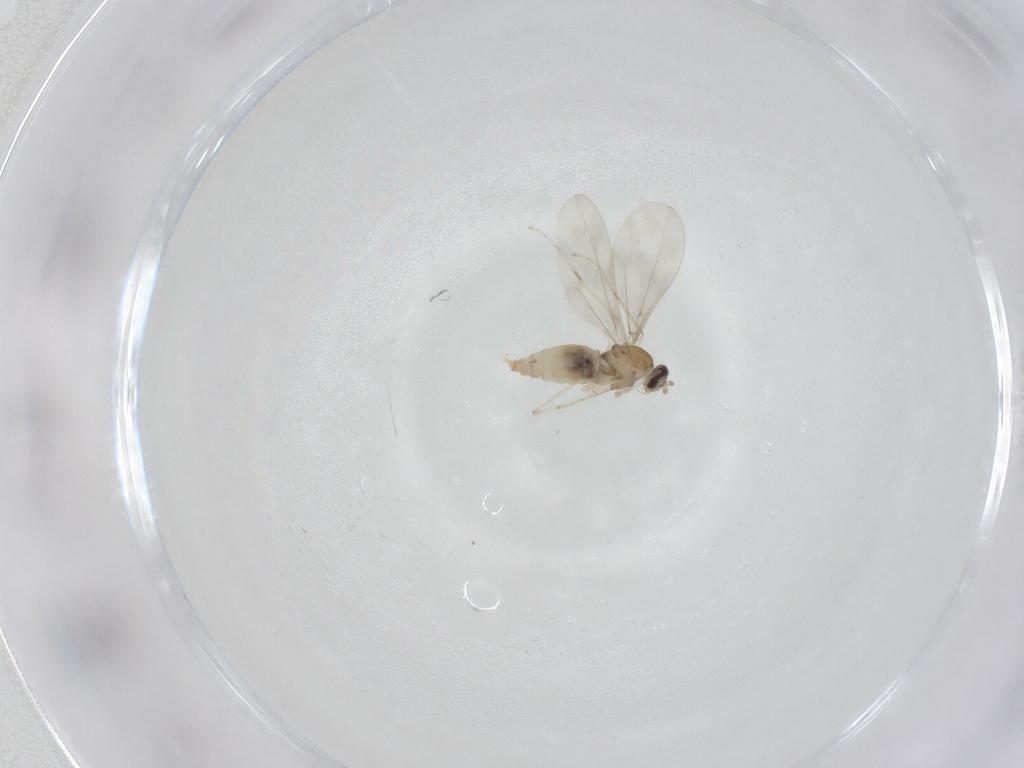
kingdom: Animalia
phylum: Arthropoda
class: Insecta
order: Diptera
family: Cecidomyiidae
